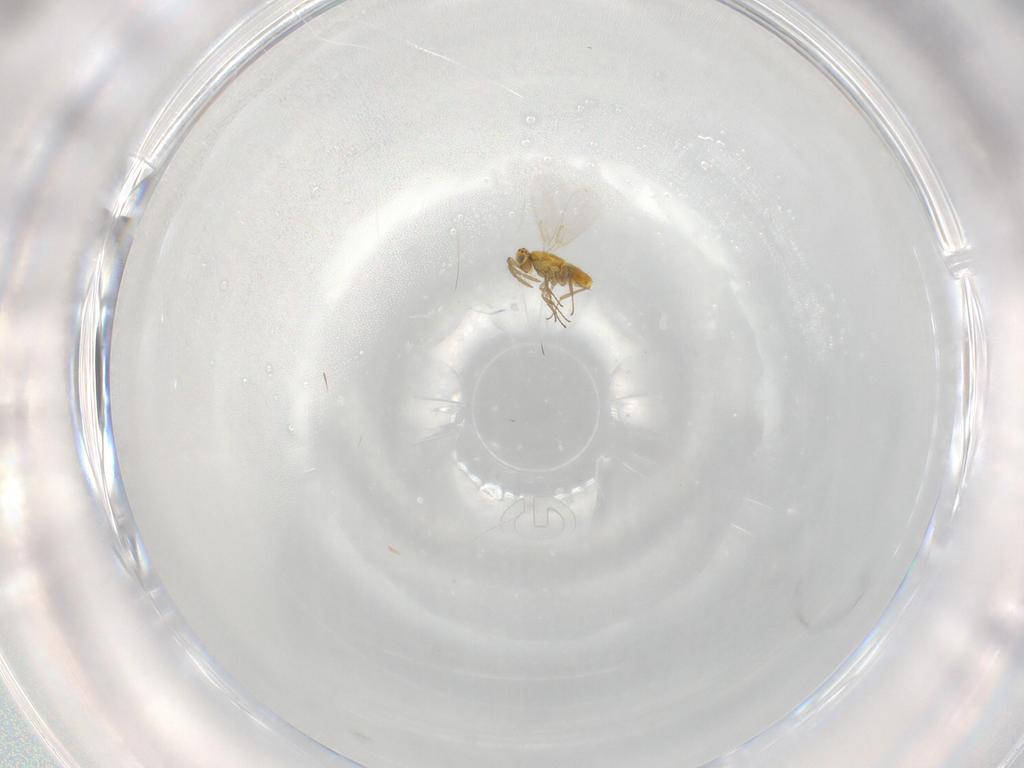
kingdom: Animalia
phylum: Arthropoda
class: Insecta
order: Hymenoptera
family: Aphelinidae
